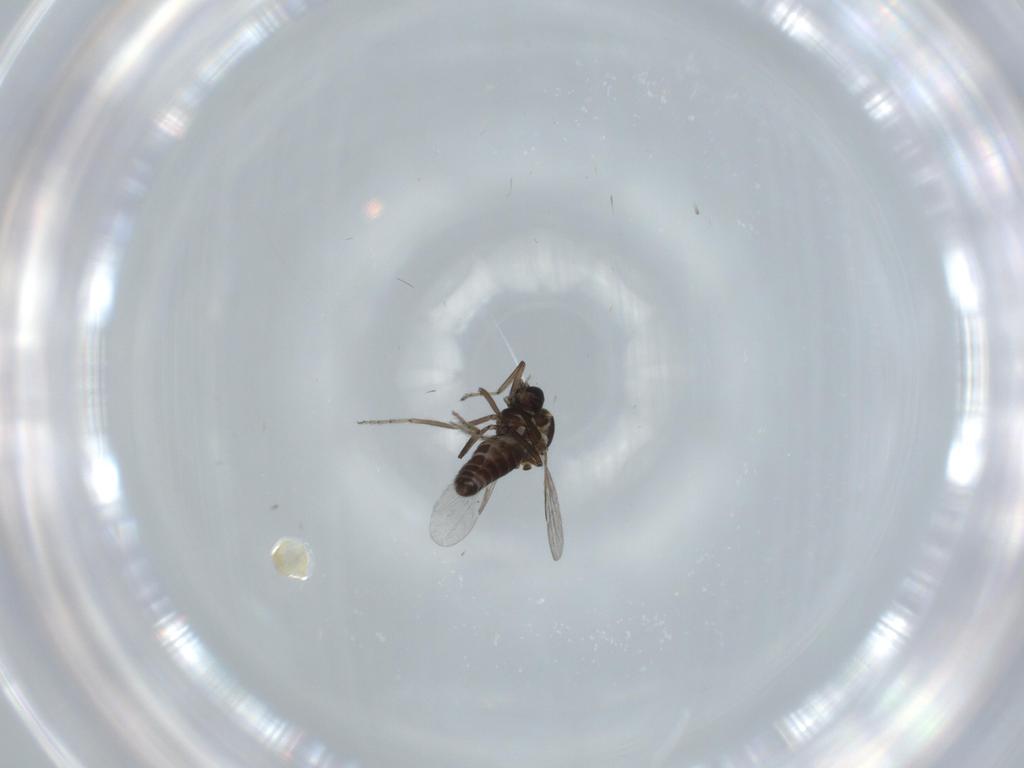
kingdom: Animalia
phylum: Arthropoda
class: Insecta
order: Diptera
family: Ceratopogonidae
